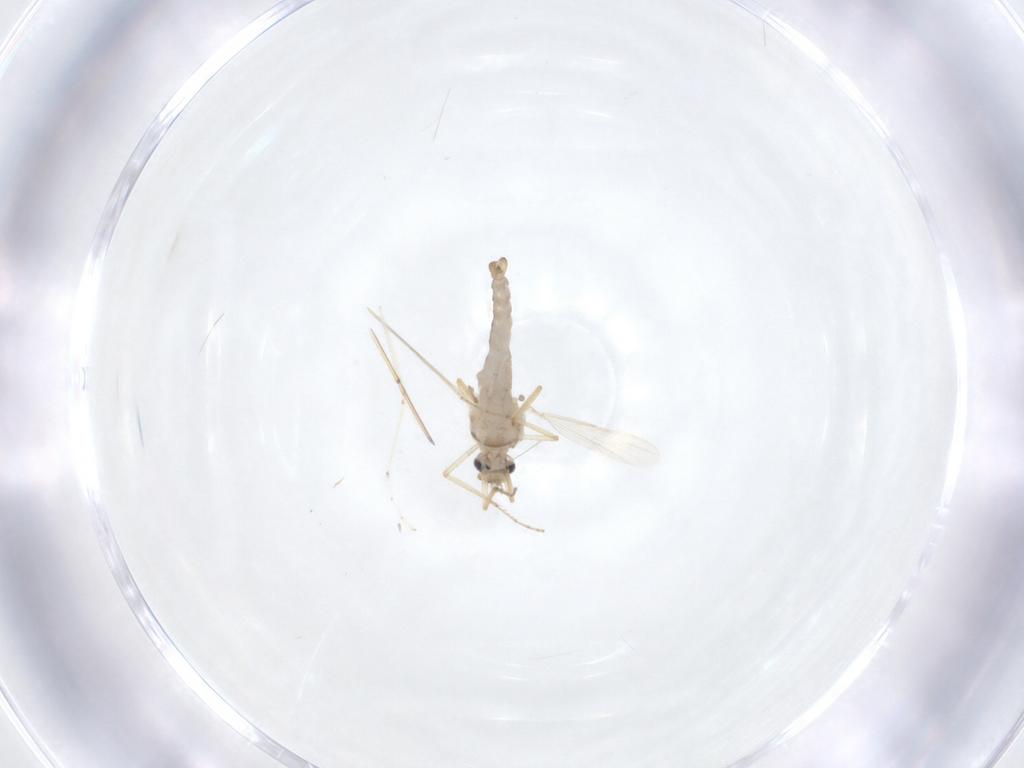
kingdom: Animalia
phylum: Arthropoda
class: Insecta
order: Diptera
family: Ceratopogonidae
